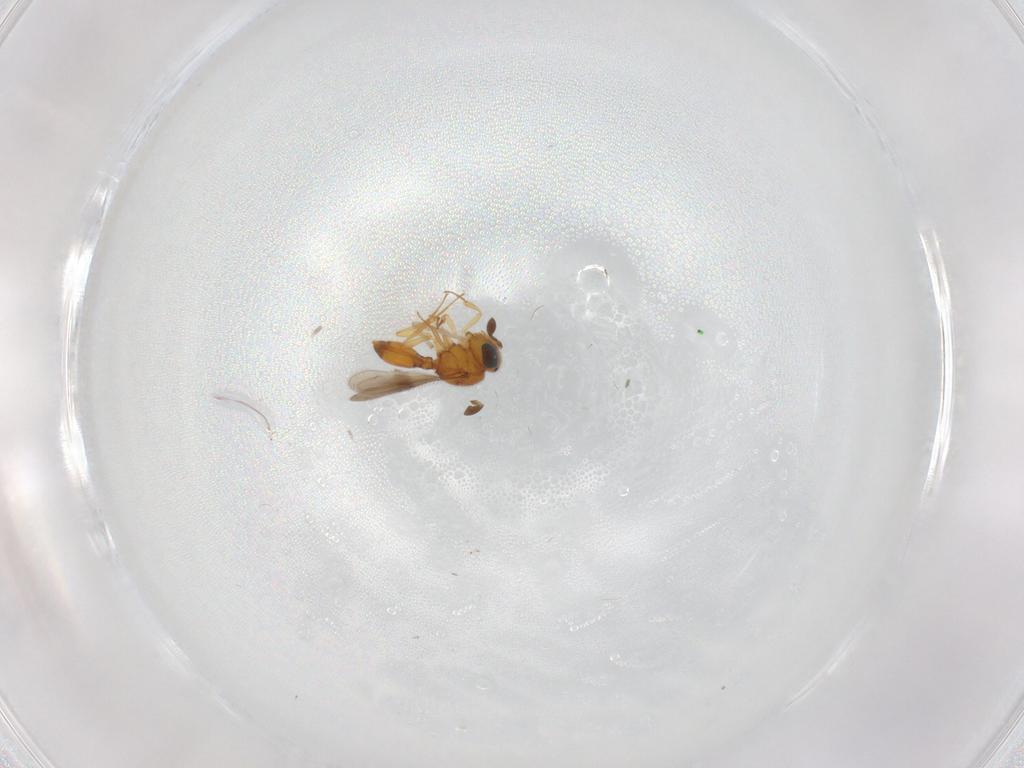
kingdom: Animalia
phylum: Arthropoda
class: Insecta
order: Hymenoptera
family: Scelionidae
